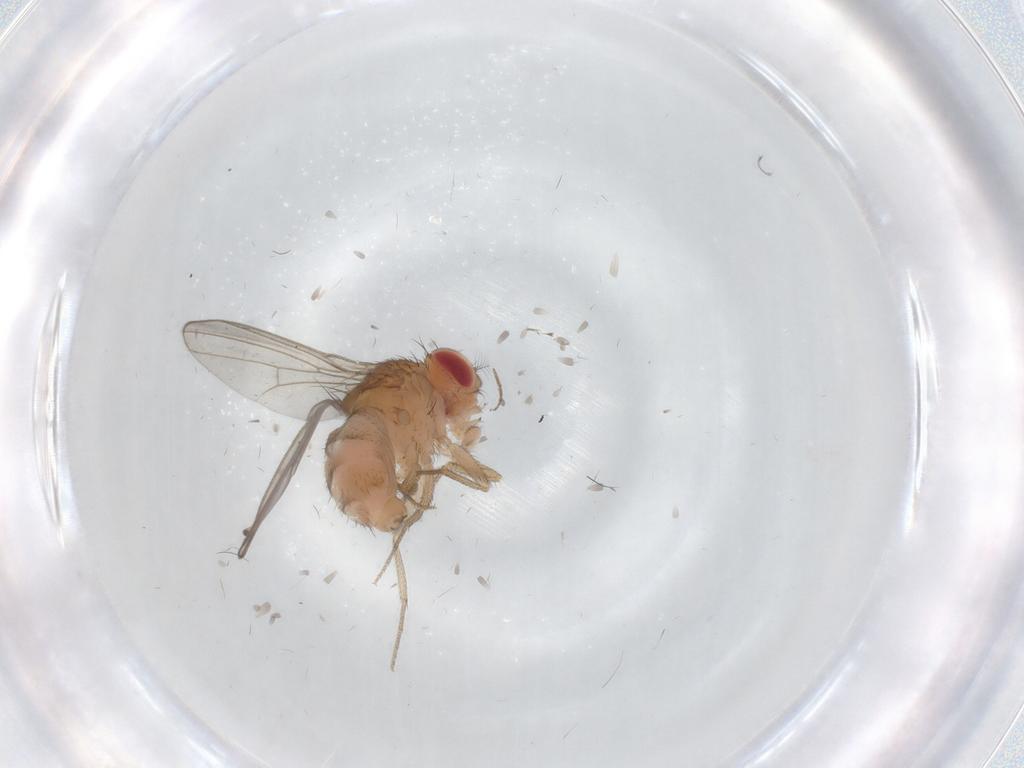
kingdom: Animalia
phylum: Arthropoda
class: Insecta
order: Diptera
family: Drosophilidae
